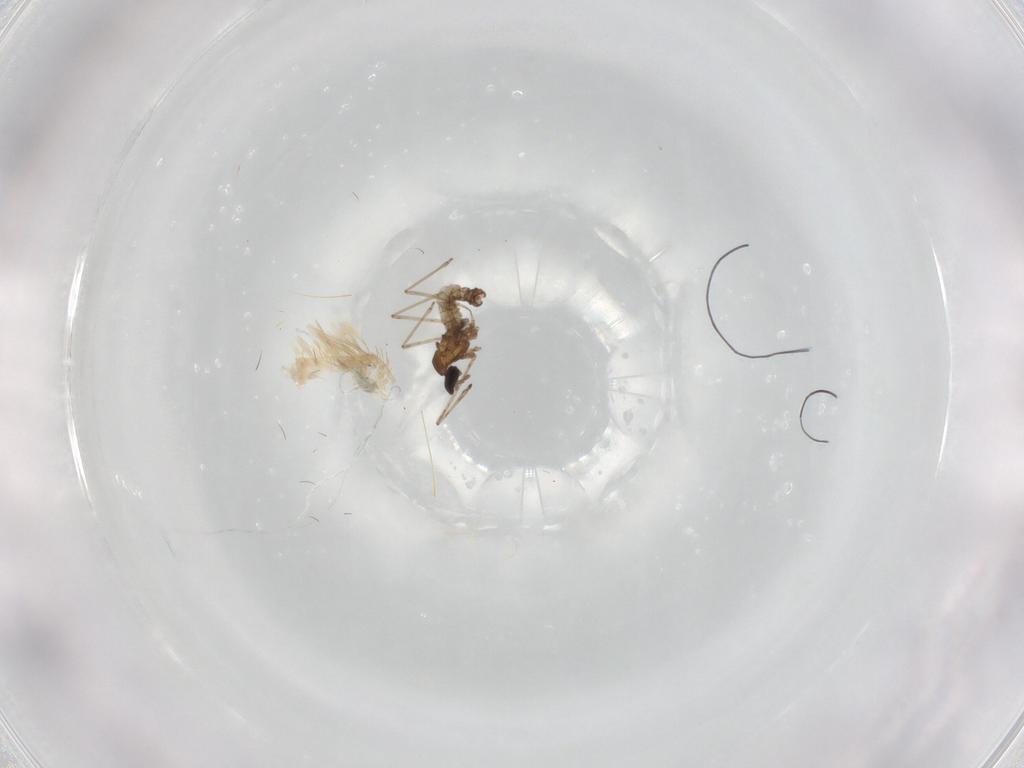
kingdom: Animalia
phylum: Arthropoda
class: Insecta
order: Diptera
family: Cecidomyiidae
